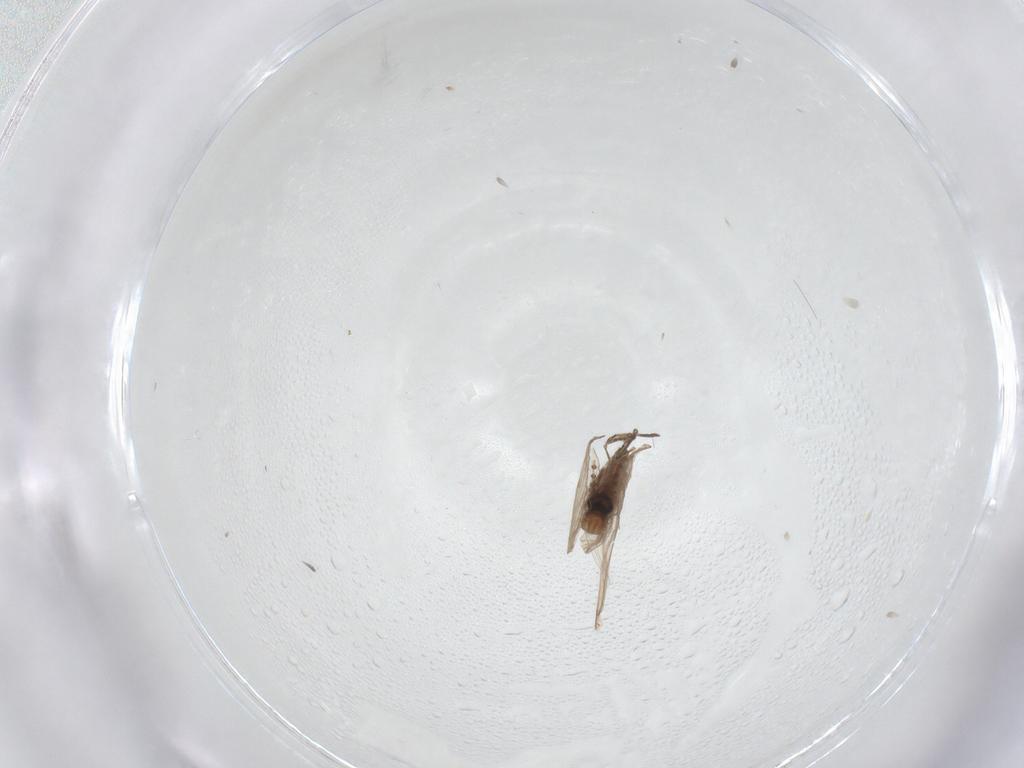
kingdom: Animalia
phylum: Arthropoda
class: Insecta
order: Diptera
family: Psychodidae
